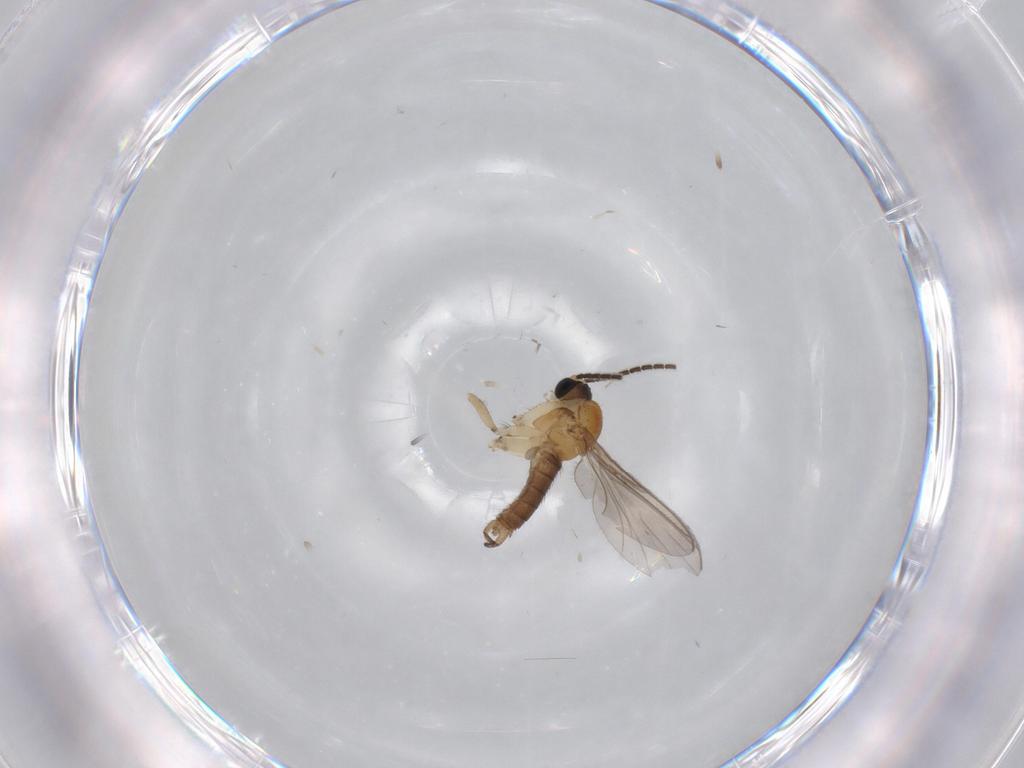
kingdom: Animalia
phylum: Arthropoda
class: Insecta
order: Diptera
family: Sciaridae
